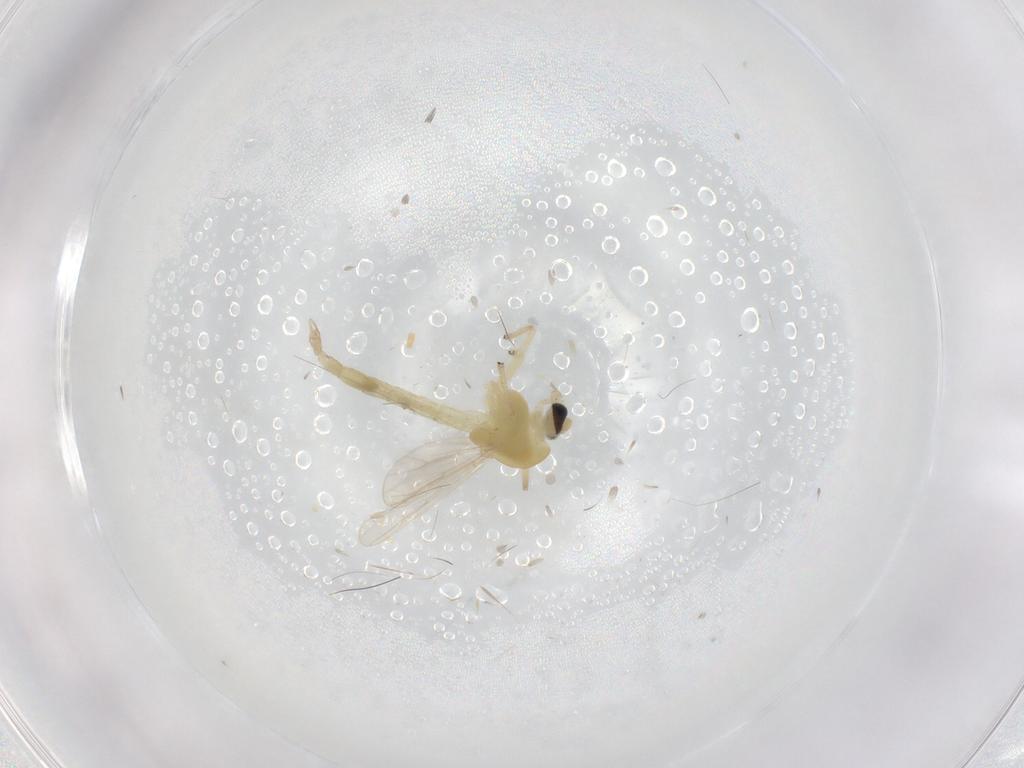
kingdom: Animalia
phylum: Arthropoda
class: Insecta
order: Diptera
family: Chironomidae
